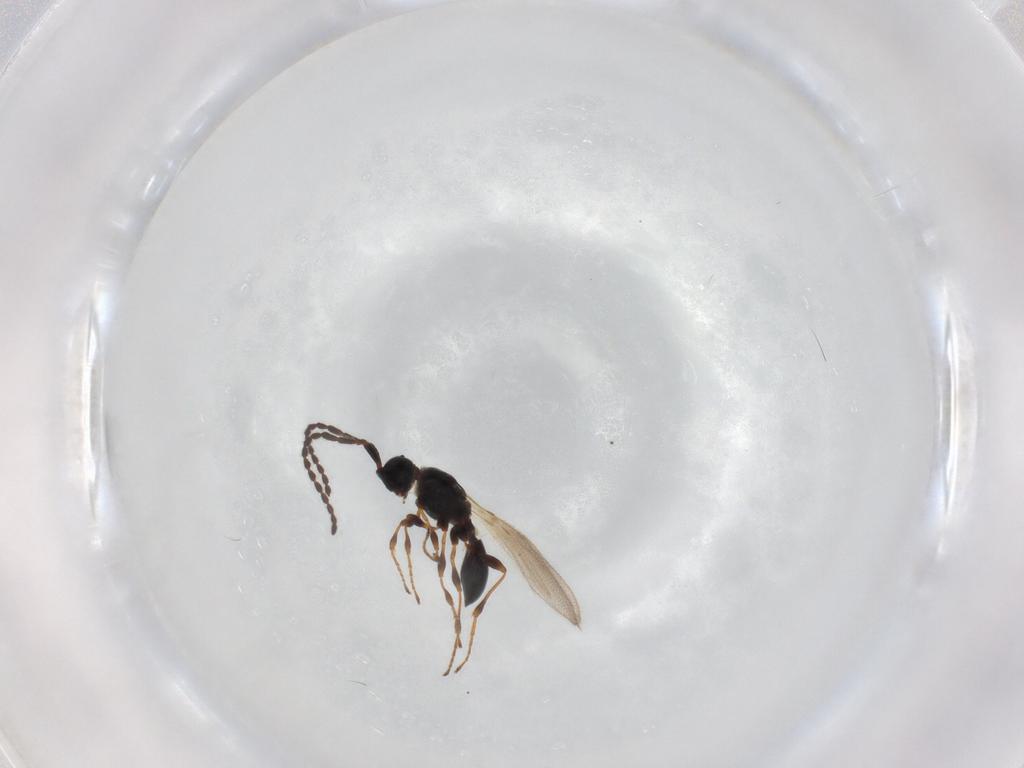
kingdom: Animalia
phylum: Arthropoda
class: Insecta
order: Hymenoptera
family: Diapriidae
